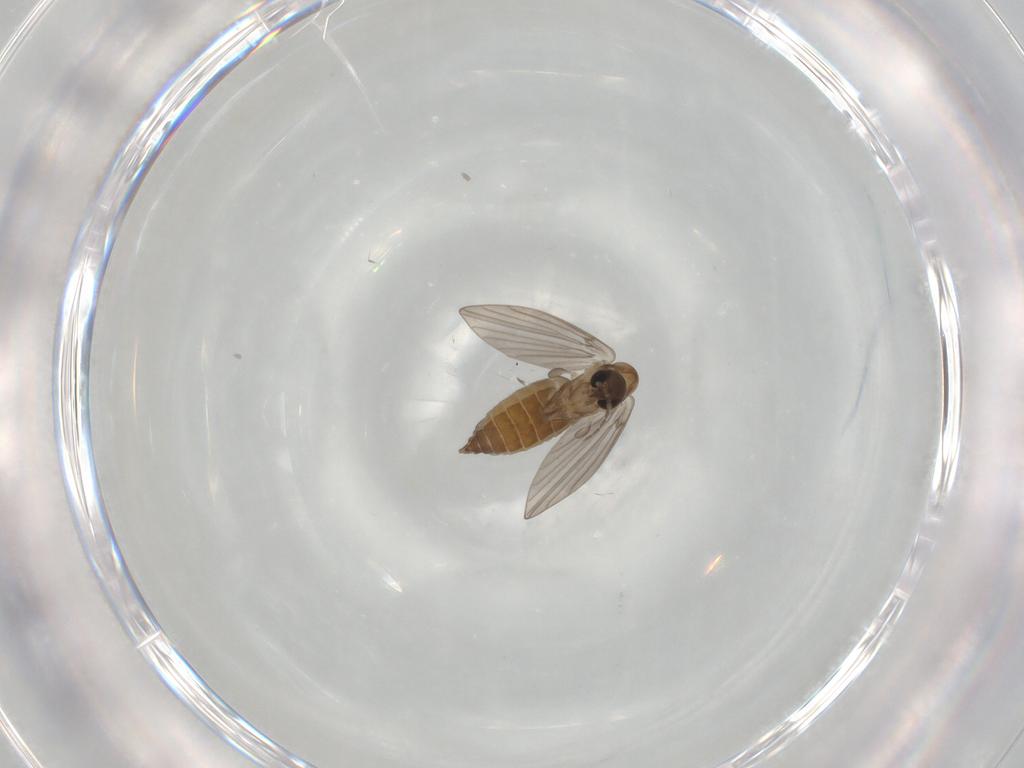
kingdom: Animalia
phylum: Arthropoda
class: Insecta
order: Diptera
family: Psychodidae
